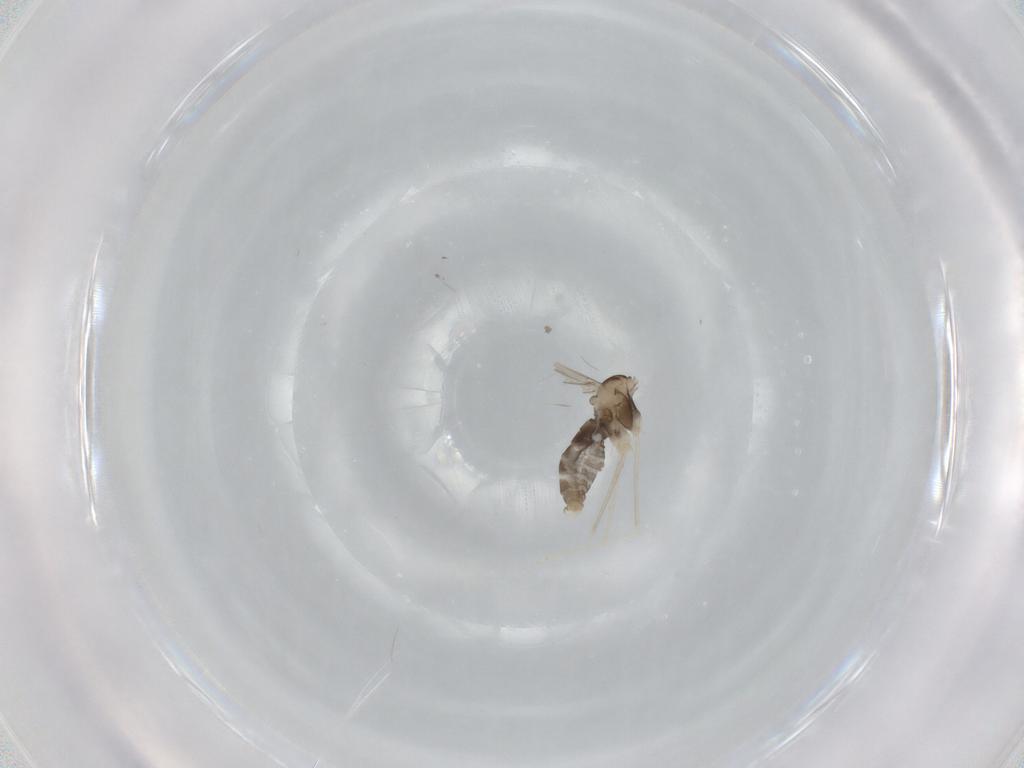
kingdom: Animalia
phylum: Arthropoda
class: Insecta
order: Diptera
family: Cecidomyiidae
